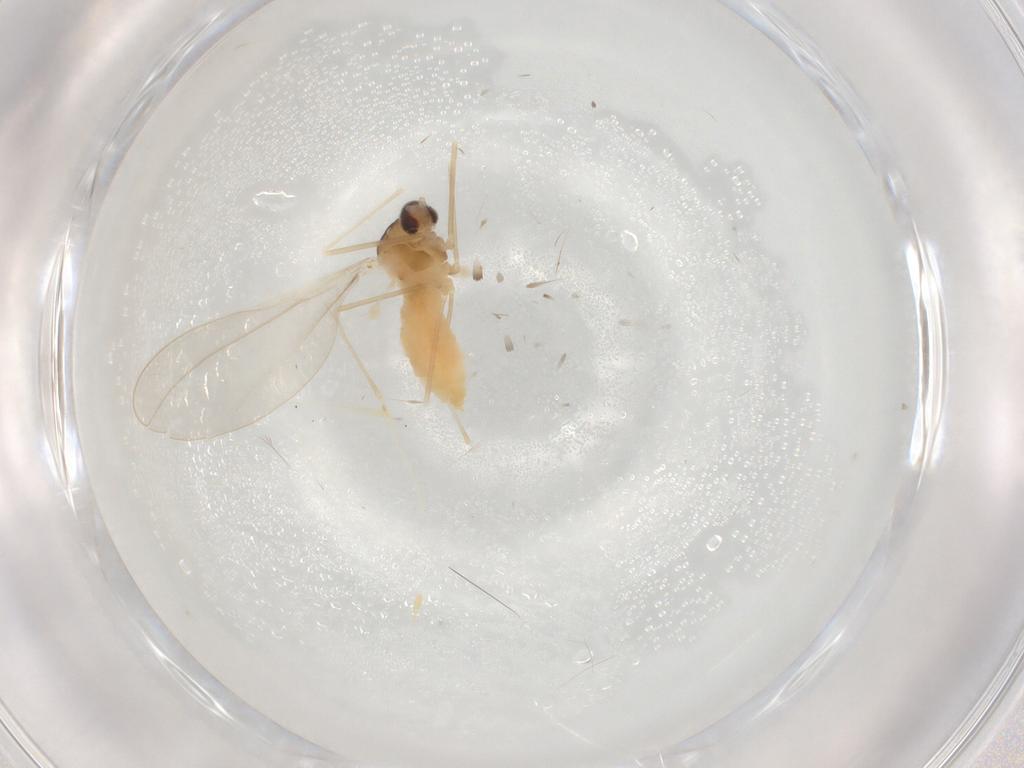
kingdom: Animalia
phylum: Arthropoda
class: Insecta
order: Diptera
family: Cecidomyiidae
